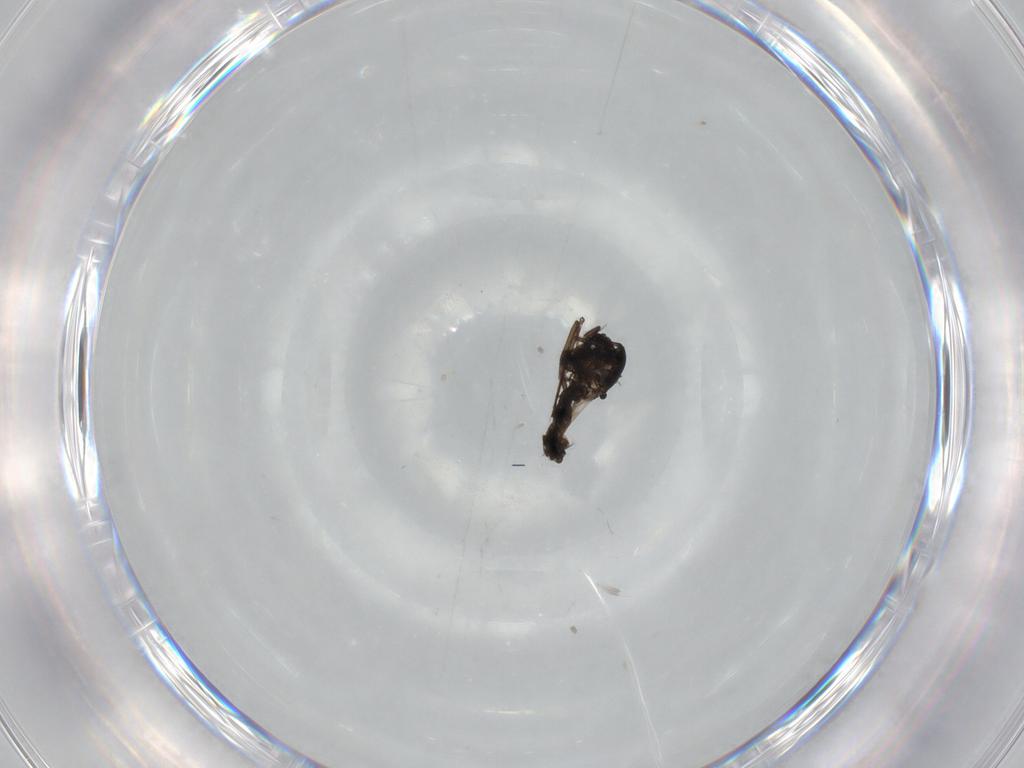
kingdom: Animalia
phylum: Arthropoda
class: Insecta
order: Diptera
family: Chironomidae
